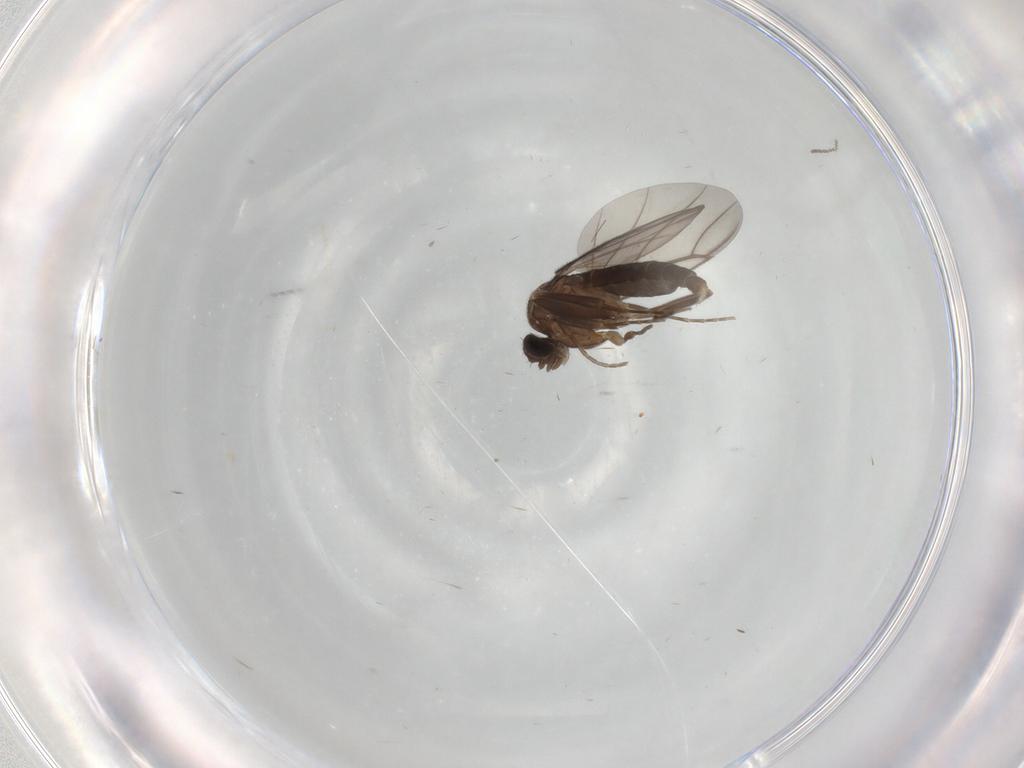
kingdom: Animalia
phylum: Arthropoda
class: Insecta
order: Diptera
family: Cecidomyiidae
